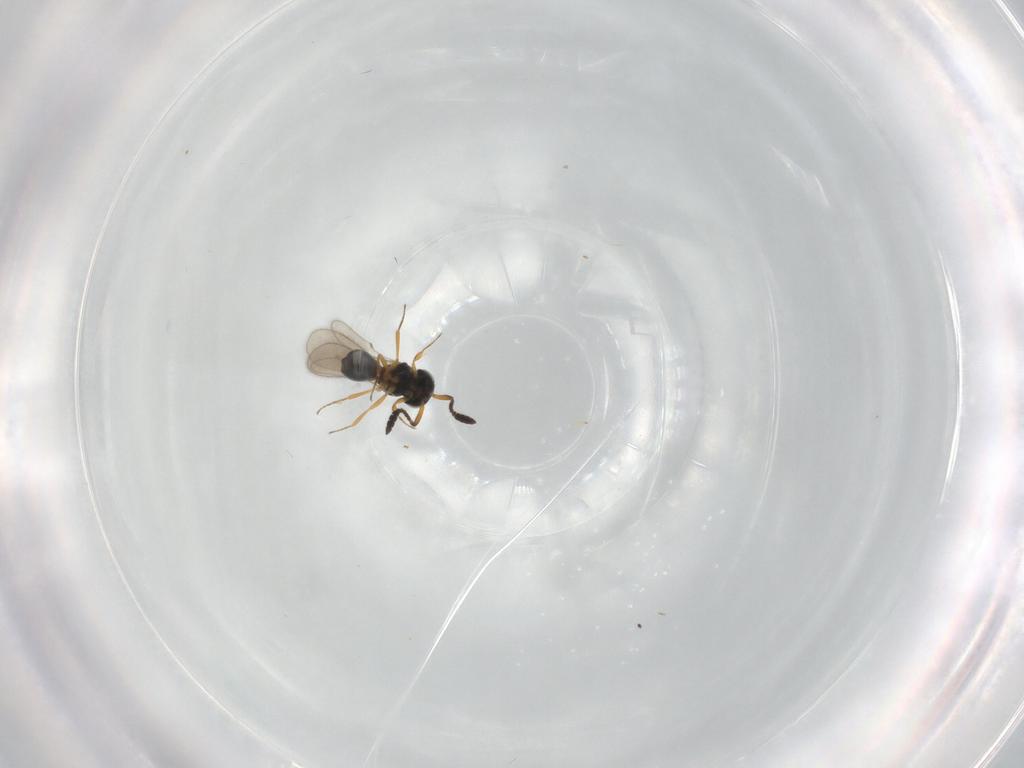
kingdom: Animalia
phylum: Arthropoda
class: Insecta
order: Hymenoptera
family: Scelionidae
